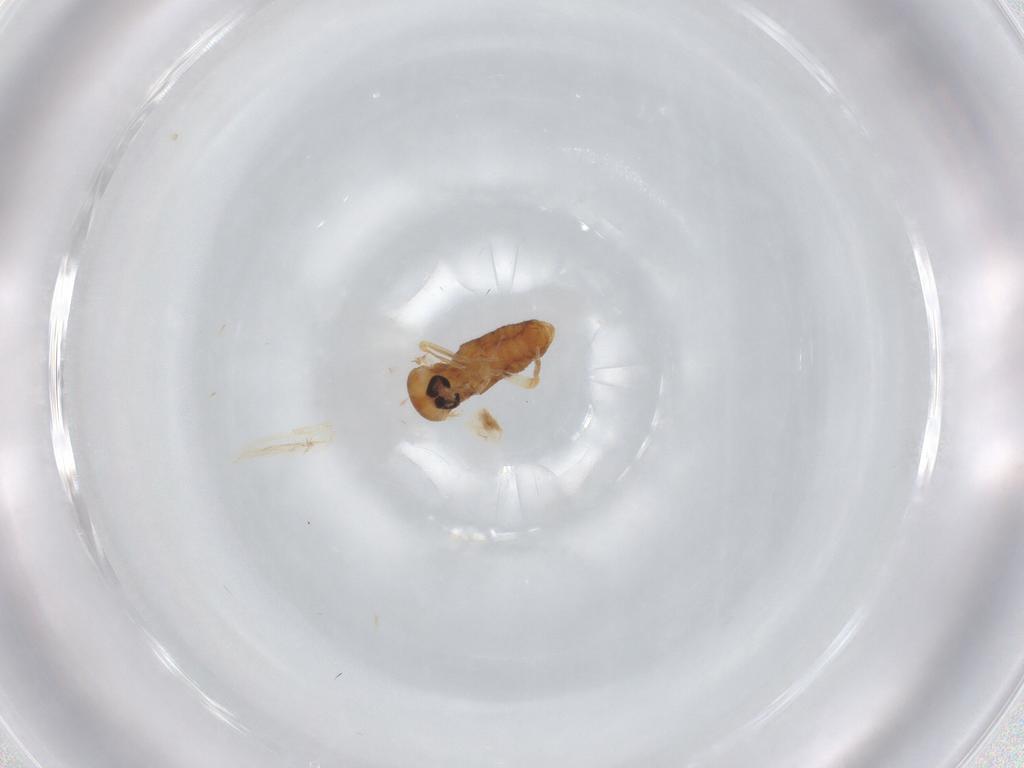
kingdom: Animalia
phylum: Arthropoda
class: Insecta
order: Diptera
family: Ceratopogonidae
